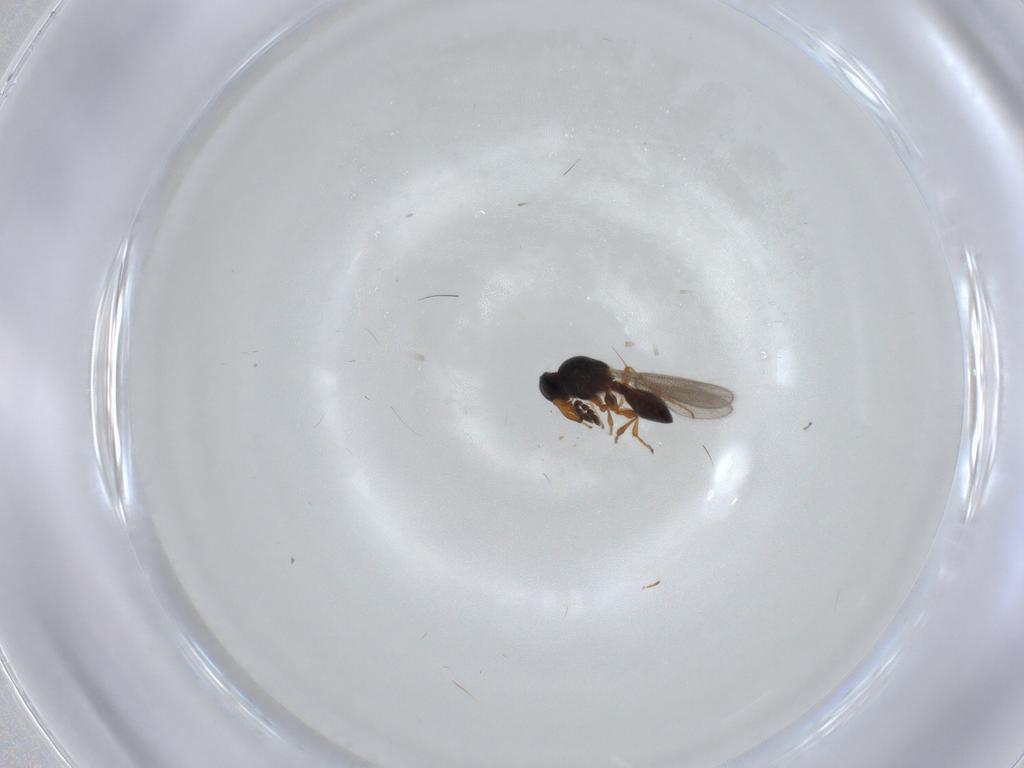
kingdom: Animalia
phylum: Arthropoda
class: Insecta
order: Hymenoptera
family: Platygastridae
